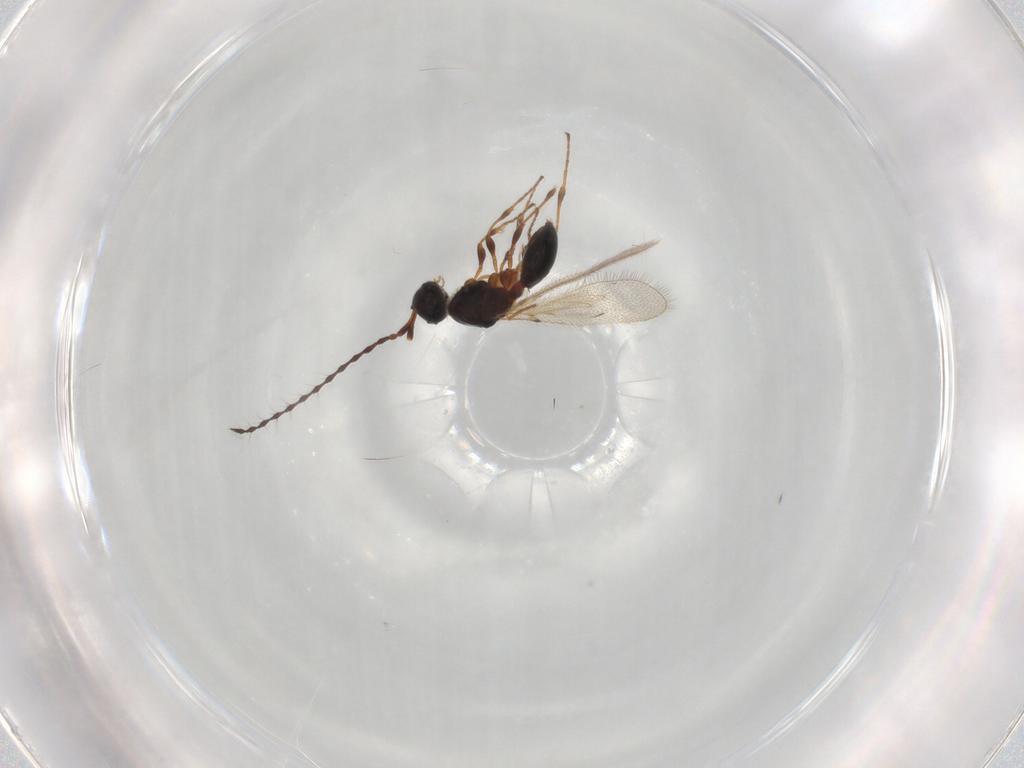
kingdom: Animalia
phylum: Arthropoda
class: Insecta
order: Hymenoptera
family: Diapriidae
